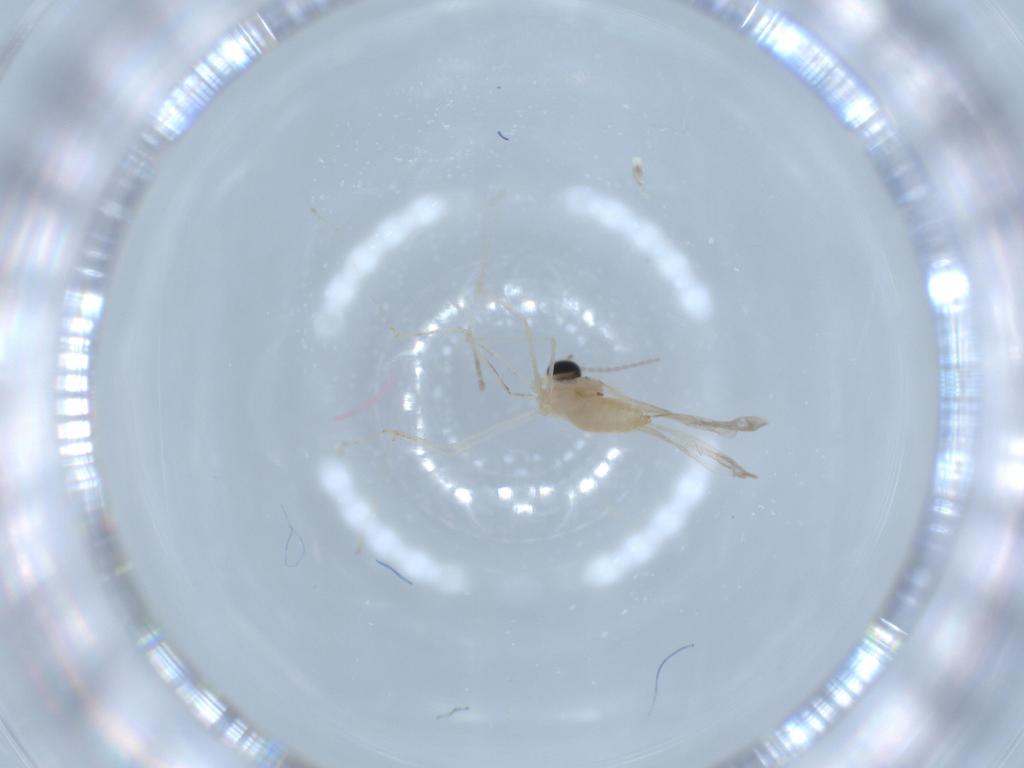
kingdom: Animalia
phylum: Arthropoda
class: Insecta
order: Diptera
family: Cecidomyiidae
